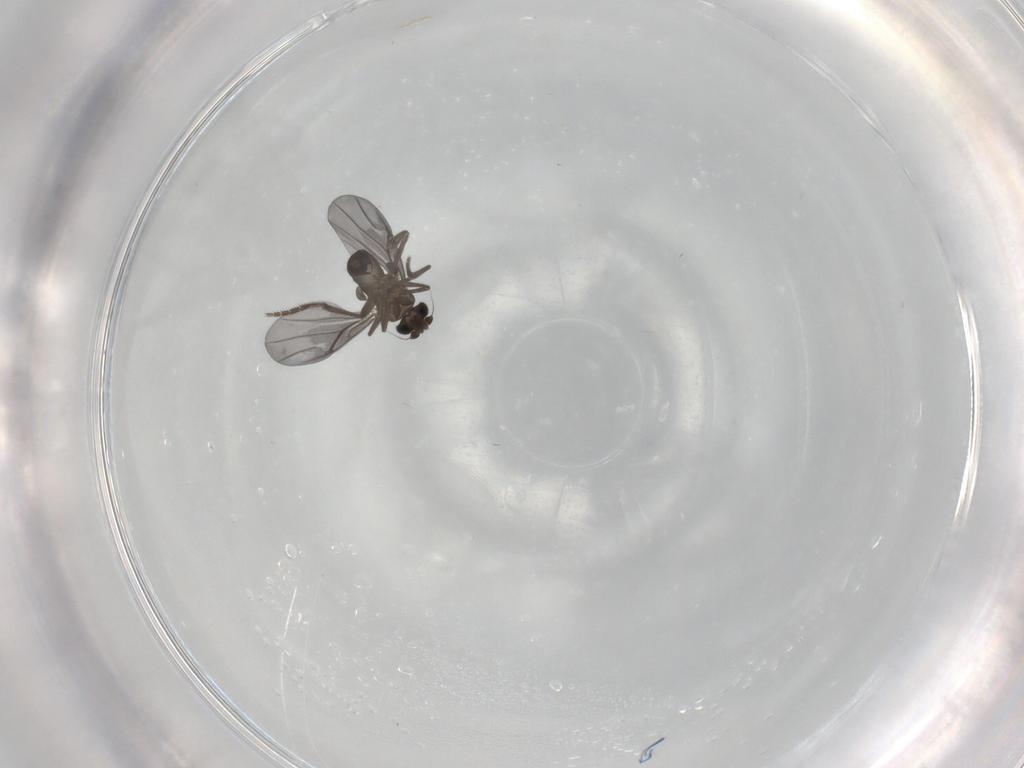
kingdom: Animalia
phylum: Arthropoda
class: Insecta
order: Diptera
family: Phoridae
